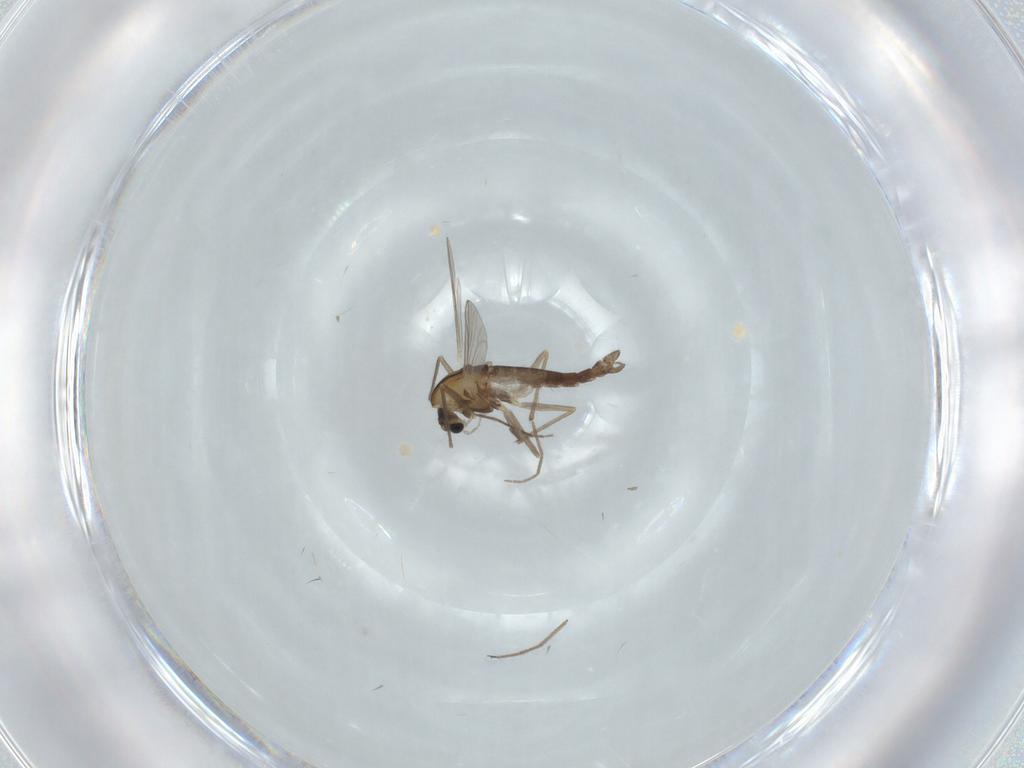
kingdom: Animalia
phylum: Arthropoda
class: Insecta
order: Diptera
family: Chironomidae
